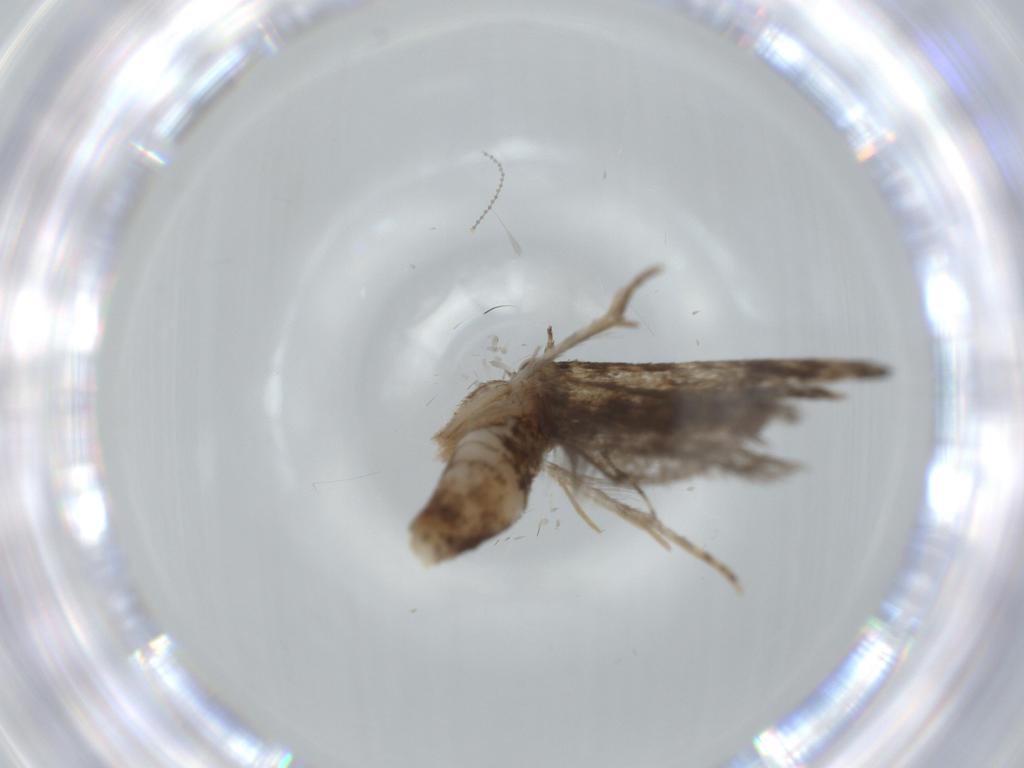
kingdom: Animalia
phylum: Arthropoda
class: Insecta
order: Lepidoptera
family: Tineidae
